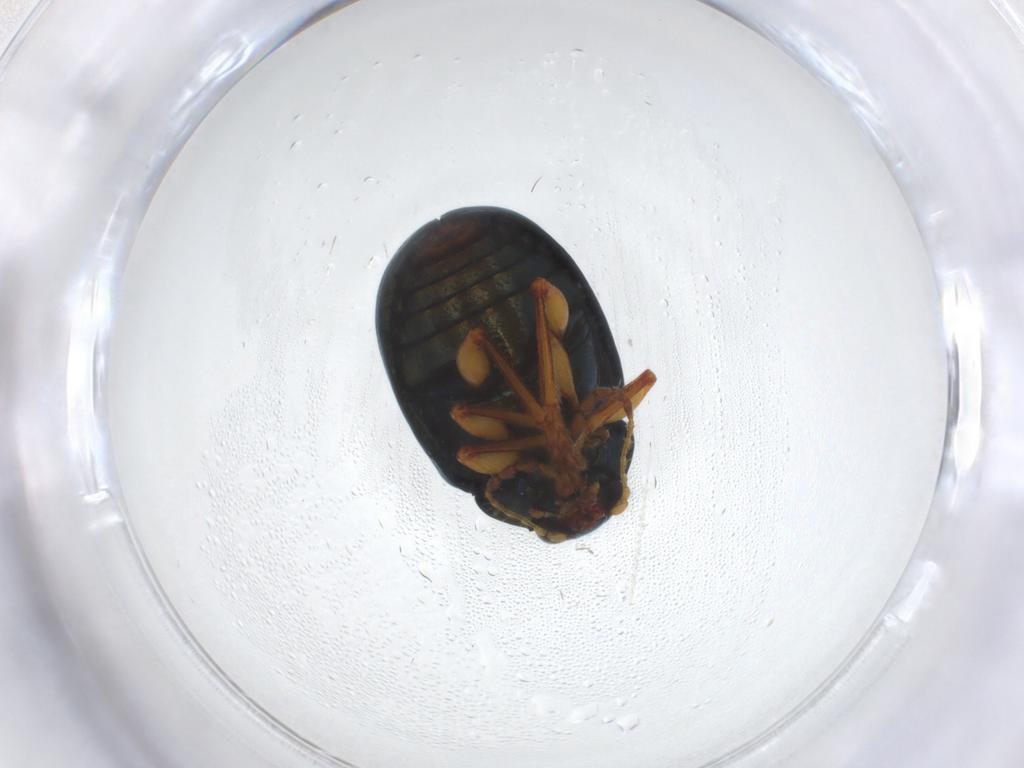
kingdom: Animalia
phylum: Arthropoda
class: Insecta
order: Coleoptera
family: Chrysomelidae
